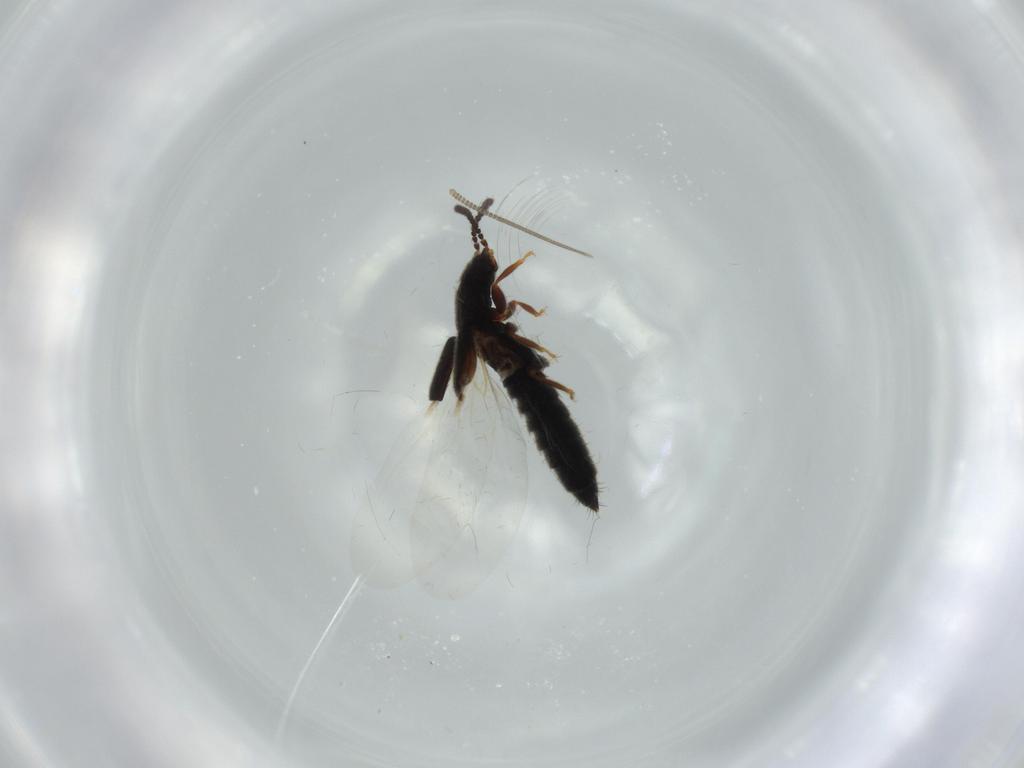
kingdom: Animalia
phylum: Arthropoda
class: Insecta
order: Coleoptera
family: Staphylinidae
